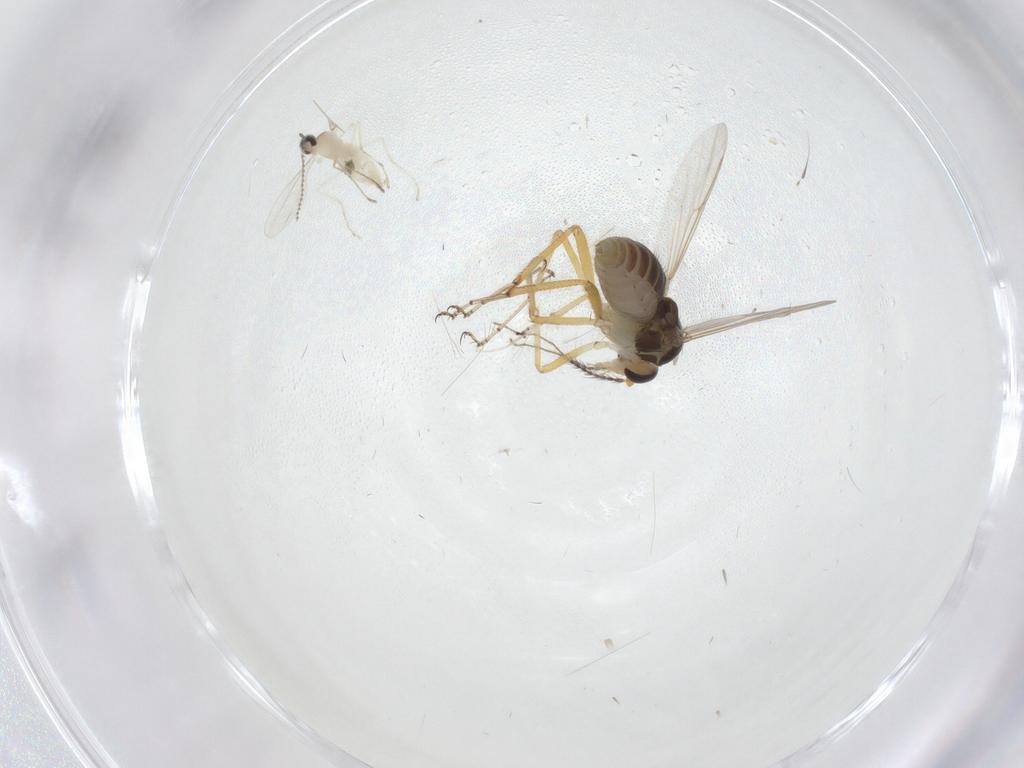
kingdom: Animalia
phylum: Arthropoda
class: Insecta
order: Diptera
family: Ceratopogonidae
